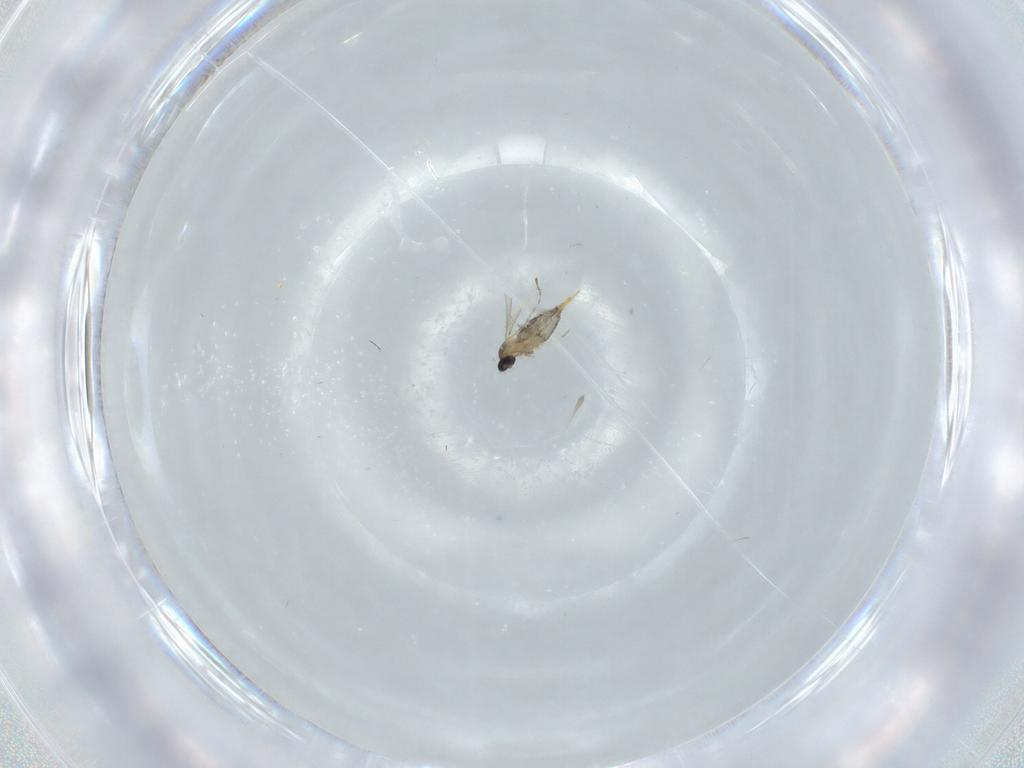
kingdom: Animalia
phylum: Arthropoda
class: Insecta
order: Diptera
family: Cecidomyiidae
